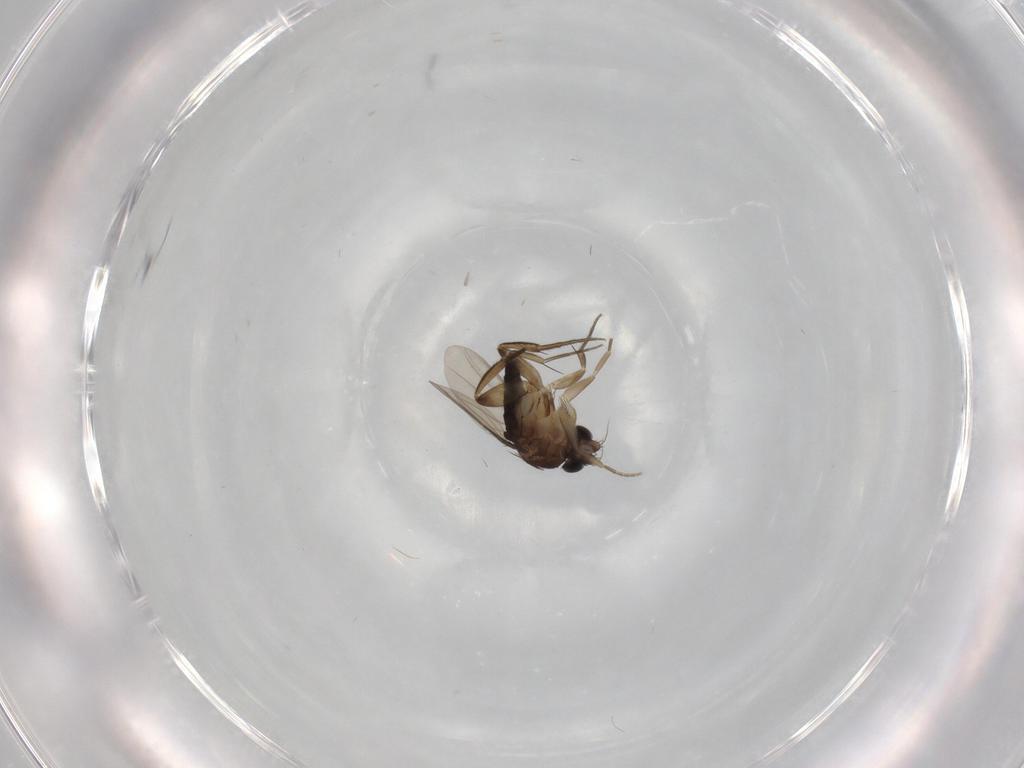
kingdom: Animalia
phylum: Arthropoda
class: Insecta
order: Diptera
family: Phoridae
